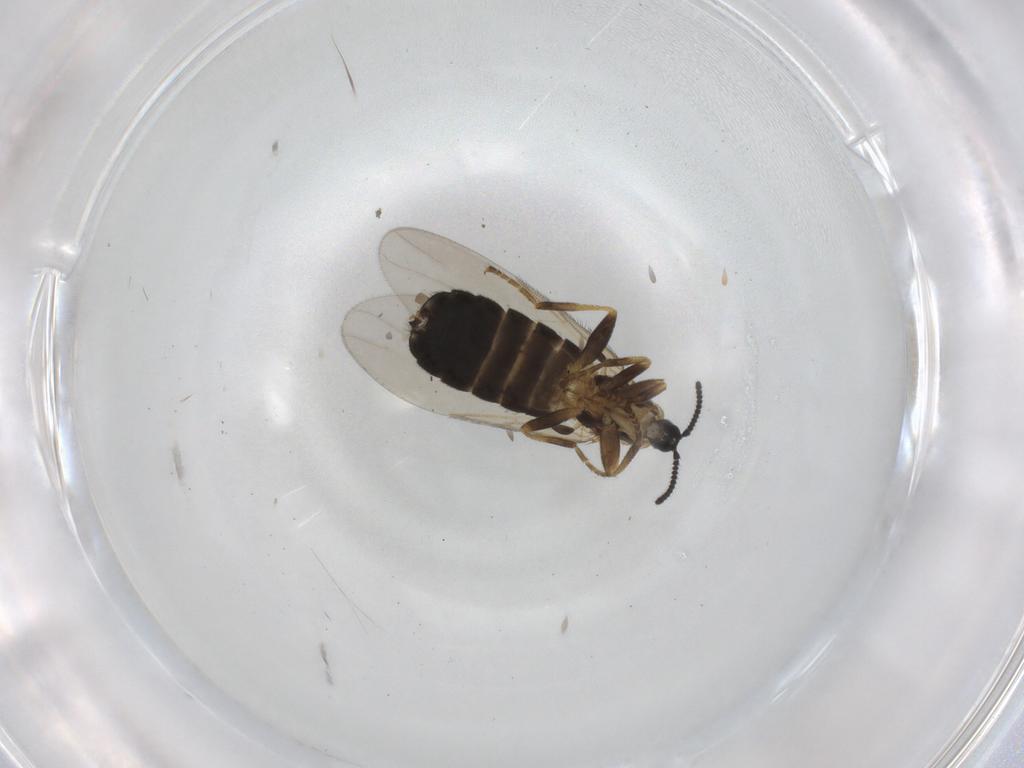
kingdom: Animalia
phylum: Arthropoda
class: Insecta
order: Diptera
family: Scatopsidae
